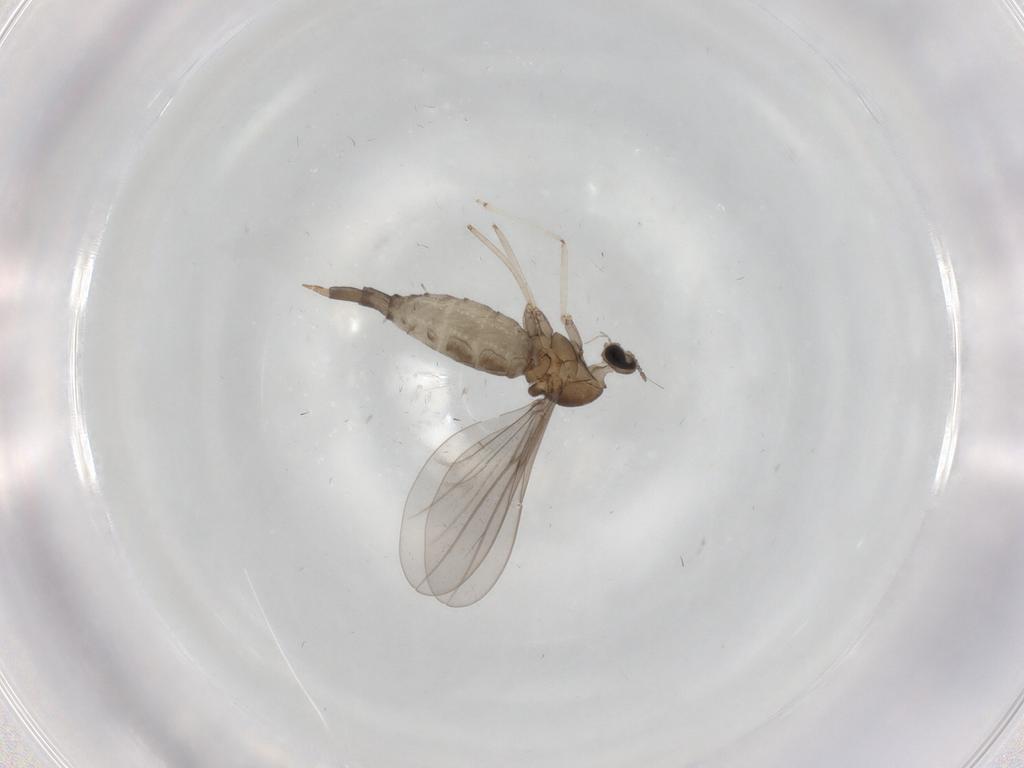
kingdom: Animalia
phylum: Arthropoda
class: Insecta
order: Diptera
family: Cecidomyiidae
